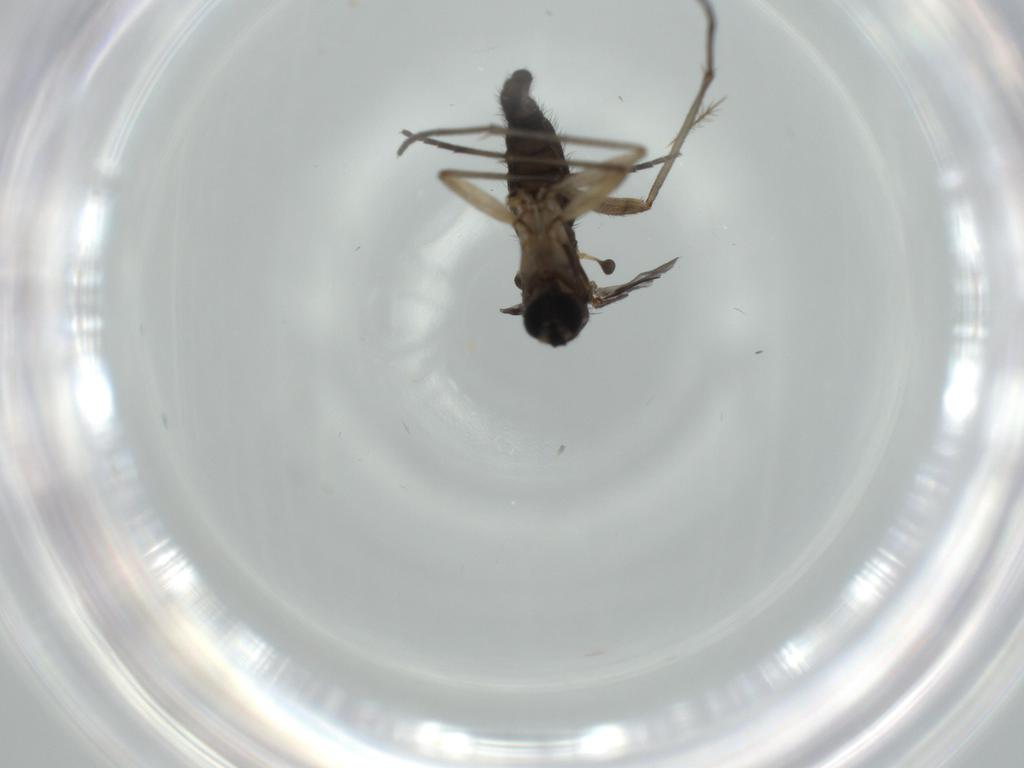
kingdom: Animalia
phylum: Arthropoda
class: Insecta
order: Diptera
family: Sciaridae
